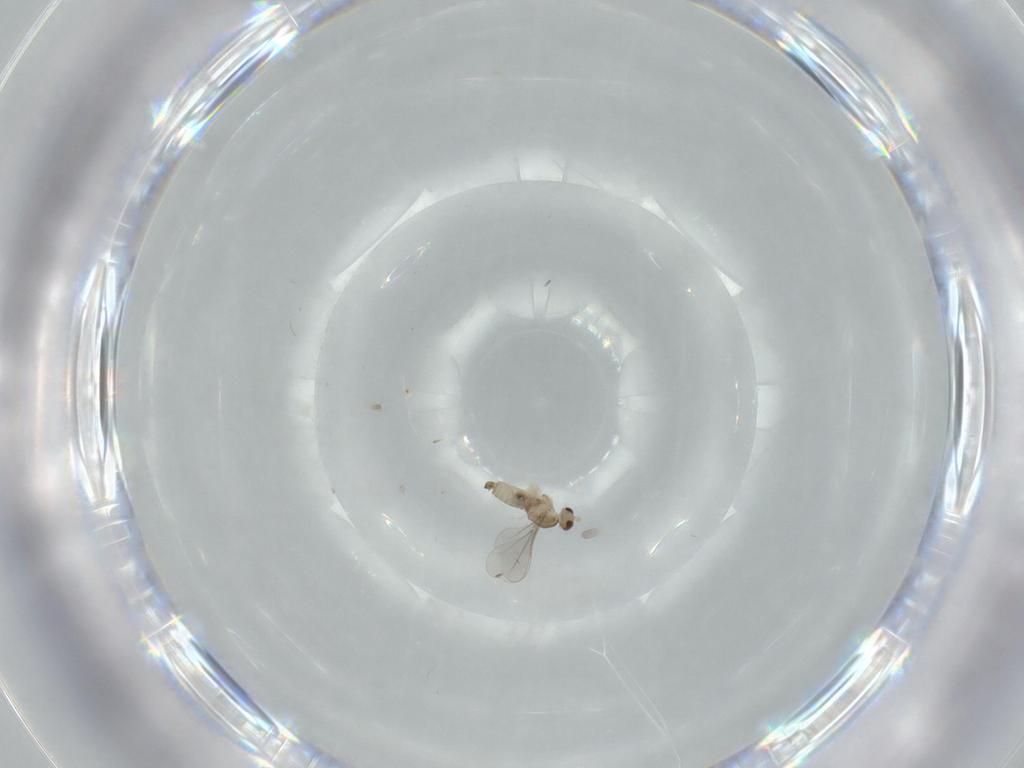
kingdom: Animalia
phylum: Arthropoda
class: Insecta
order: Diptera
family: Cecidomyiidae
